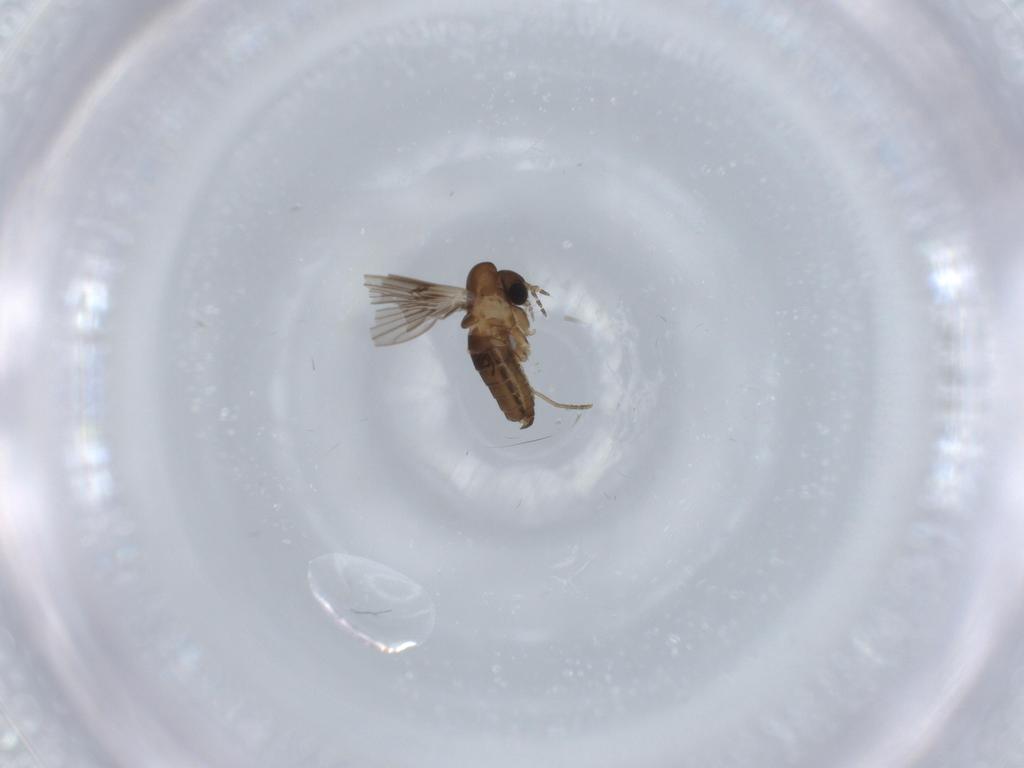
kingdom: Animalia
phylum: Arthropoda
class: Insecta
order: Diptera
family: Psychodidae
